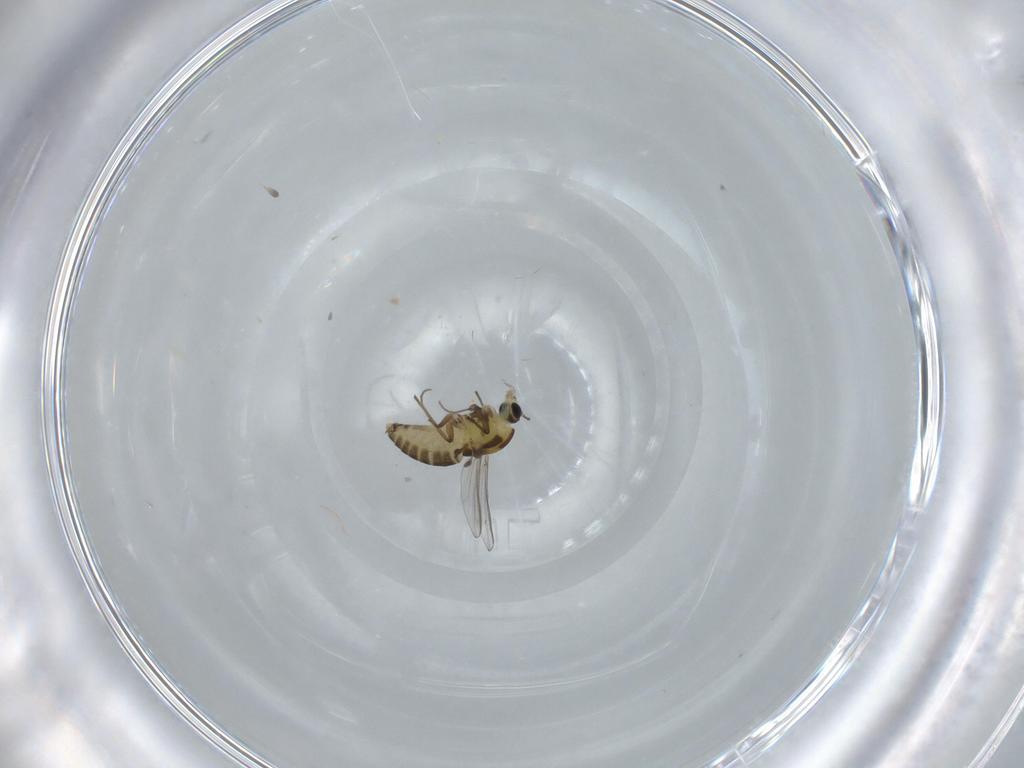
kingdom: Animalia
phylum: Arthropoda
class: Insecta
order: Diptera
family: Chironomidae
